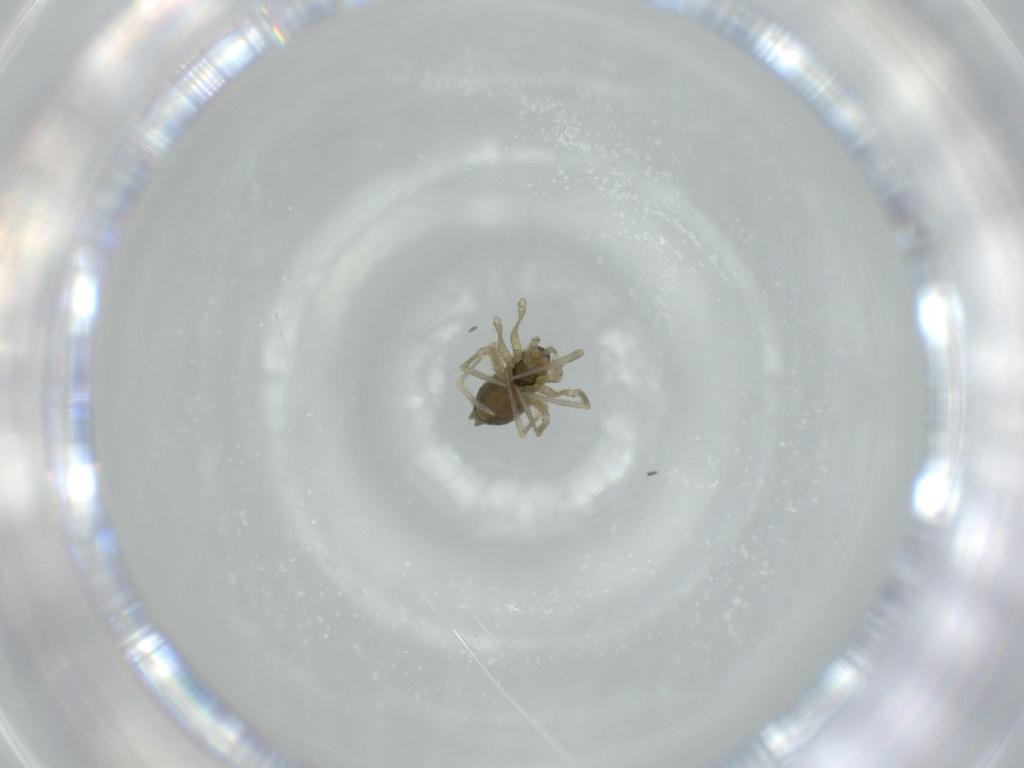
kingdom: Animalia
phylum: Arthropoda
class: Arachnida
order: Araneae
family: Linyphiidae
